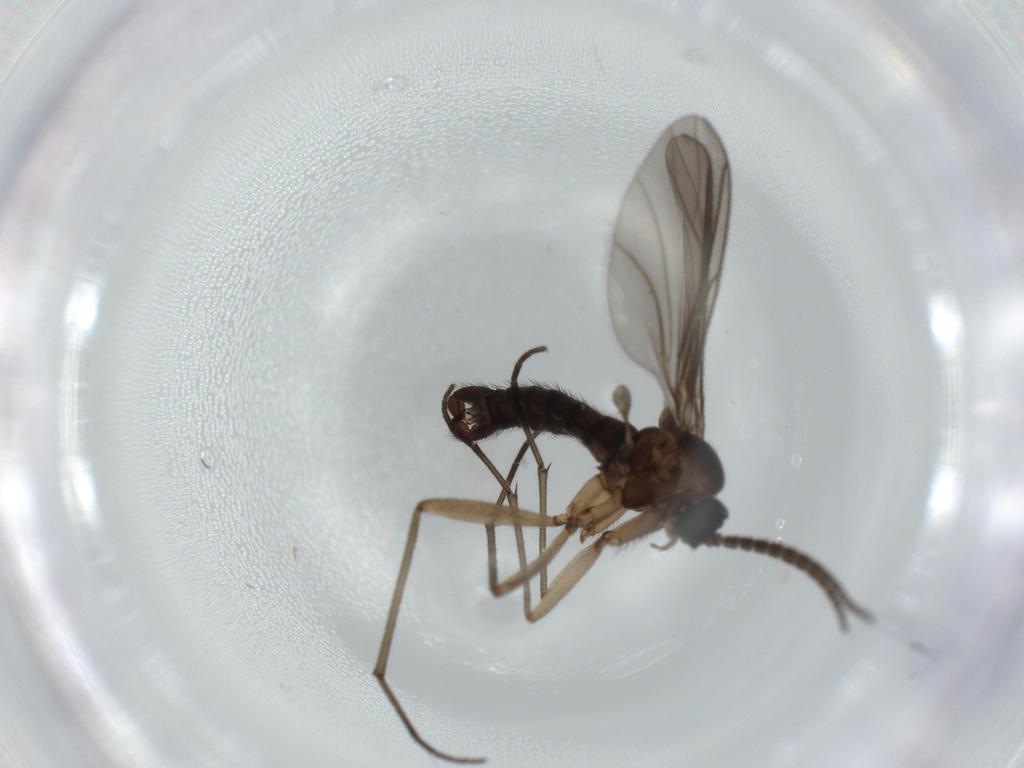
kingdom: Animalia
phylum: Arthropoda
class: Insecta
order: Diptera
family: Sciaridae
